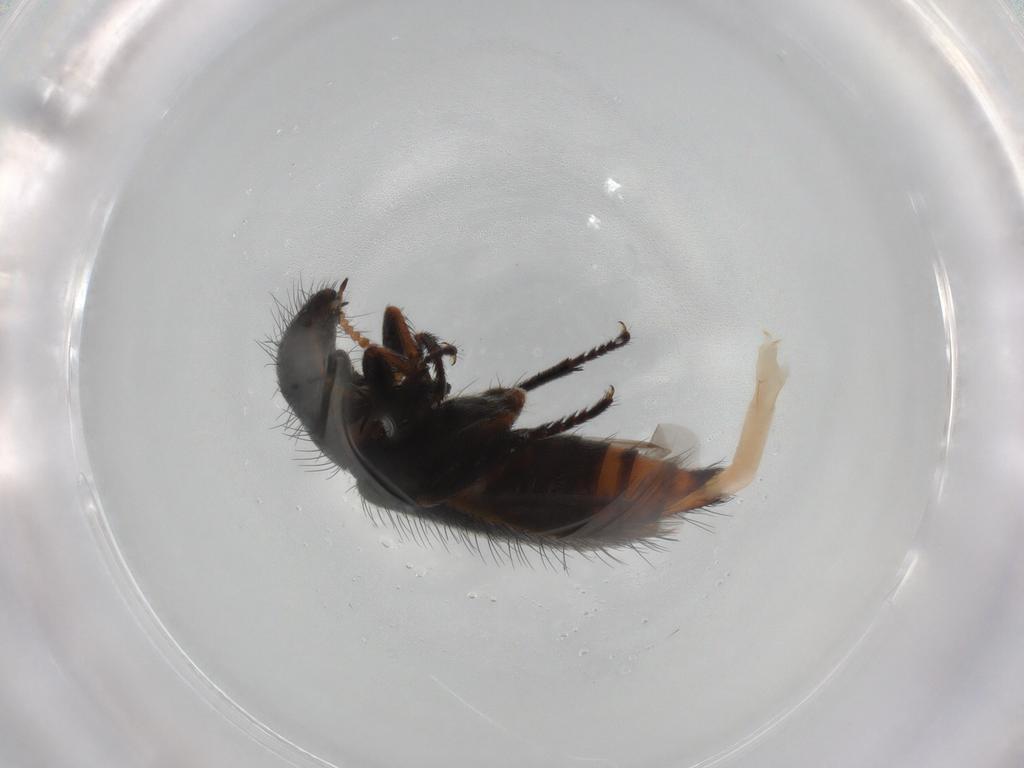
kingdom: Animalia
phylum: Arthropoda
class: Insecta
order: Coleoptera
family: Melyridae
